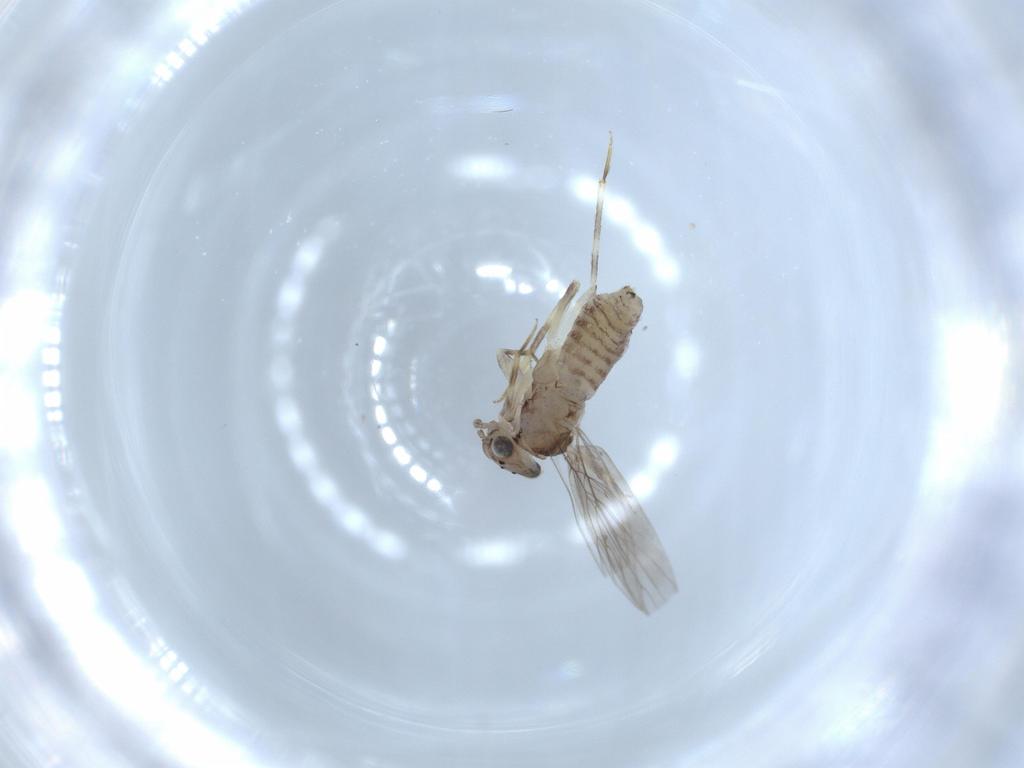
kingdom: Animalia
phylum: Arthropoda
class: Insecta
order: Psocodea
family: Lepidopsocidae
